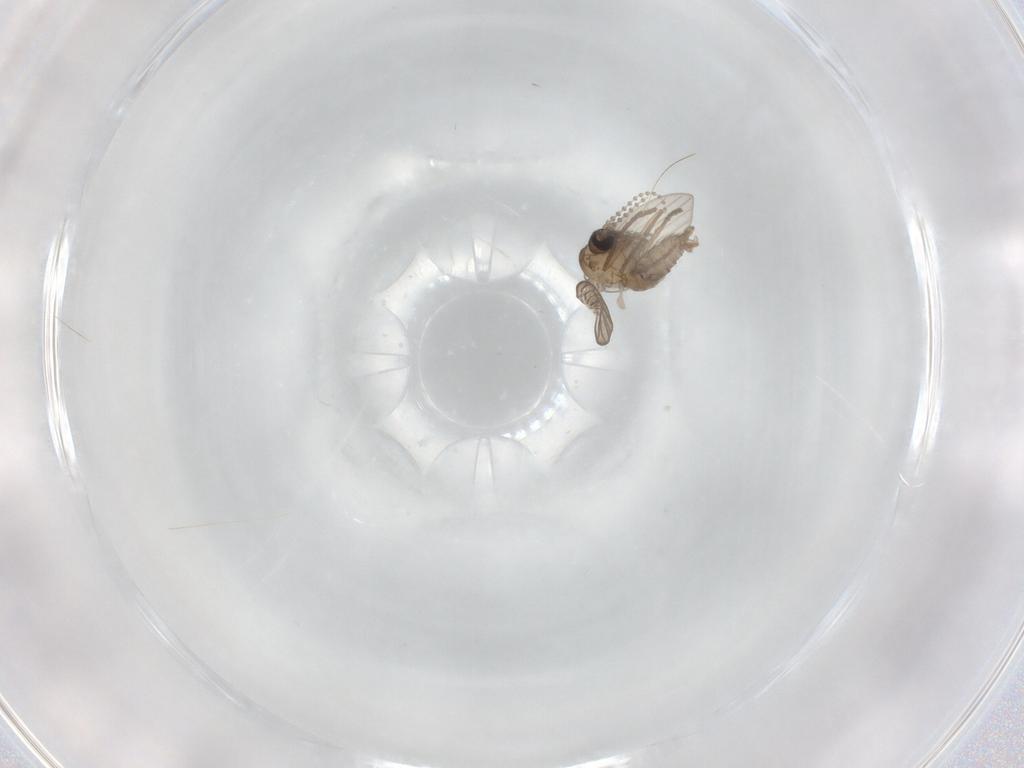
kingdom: Animalia
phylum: Arthropoda
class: Insecta
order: Diptera
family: Psychodidae
